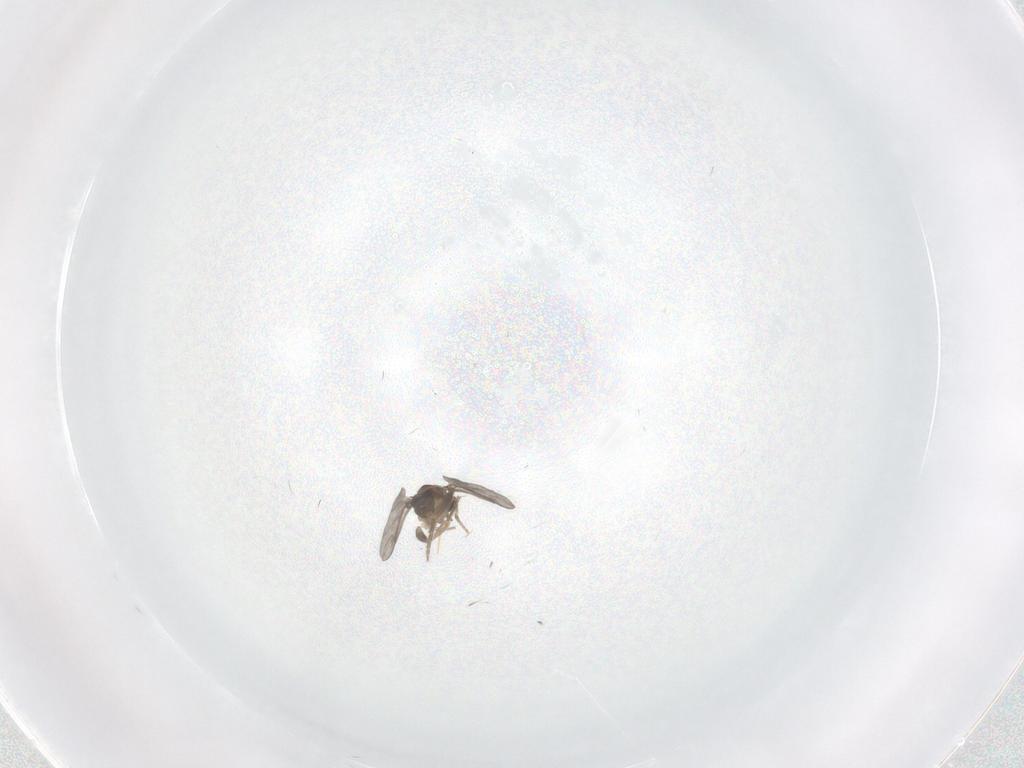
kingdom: Animalia
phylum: Arthropoda
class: Insecta
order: Diptera
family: Ceratopogonidae
